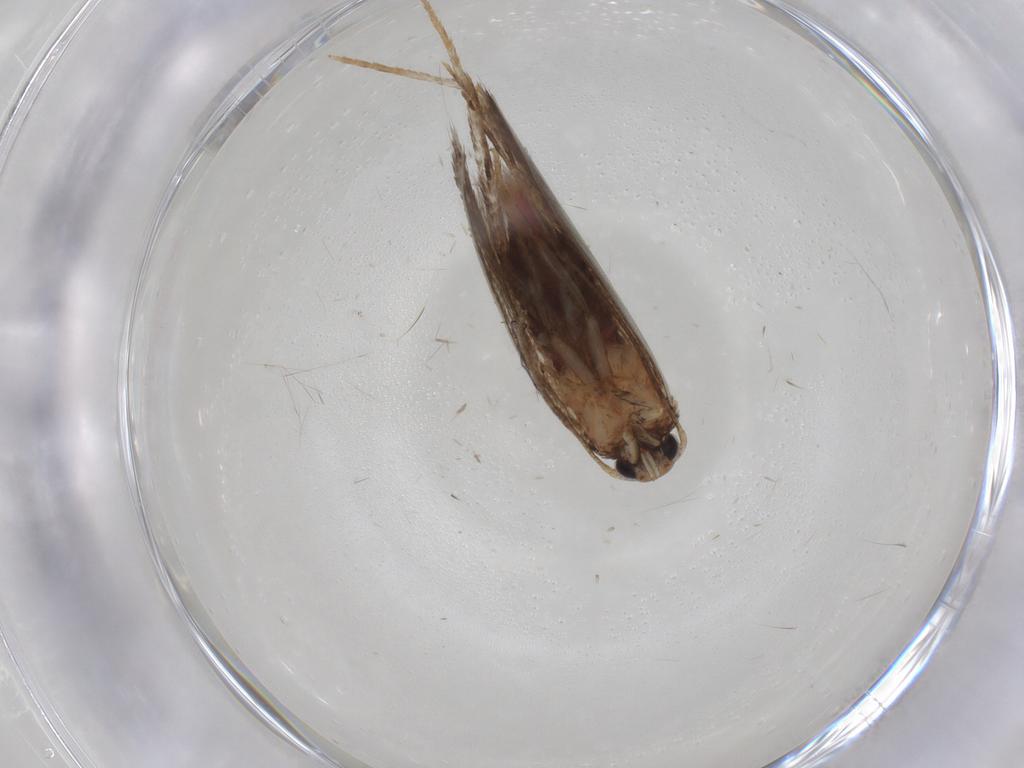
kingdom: Animalia
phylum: Arthropoda
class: Insecta
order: Lepidoptera
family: Gelechiidae
